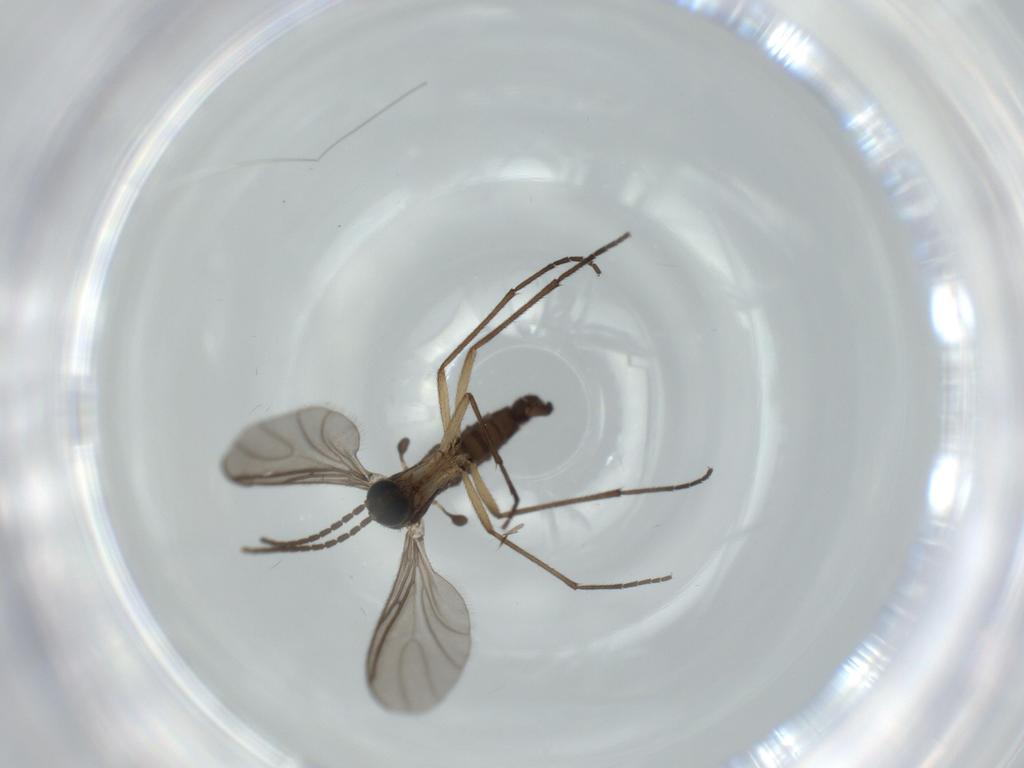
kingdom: Animalia
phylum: Arthropoda
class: Insecta
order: Diptera
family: Sciaridae
